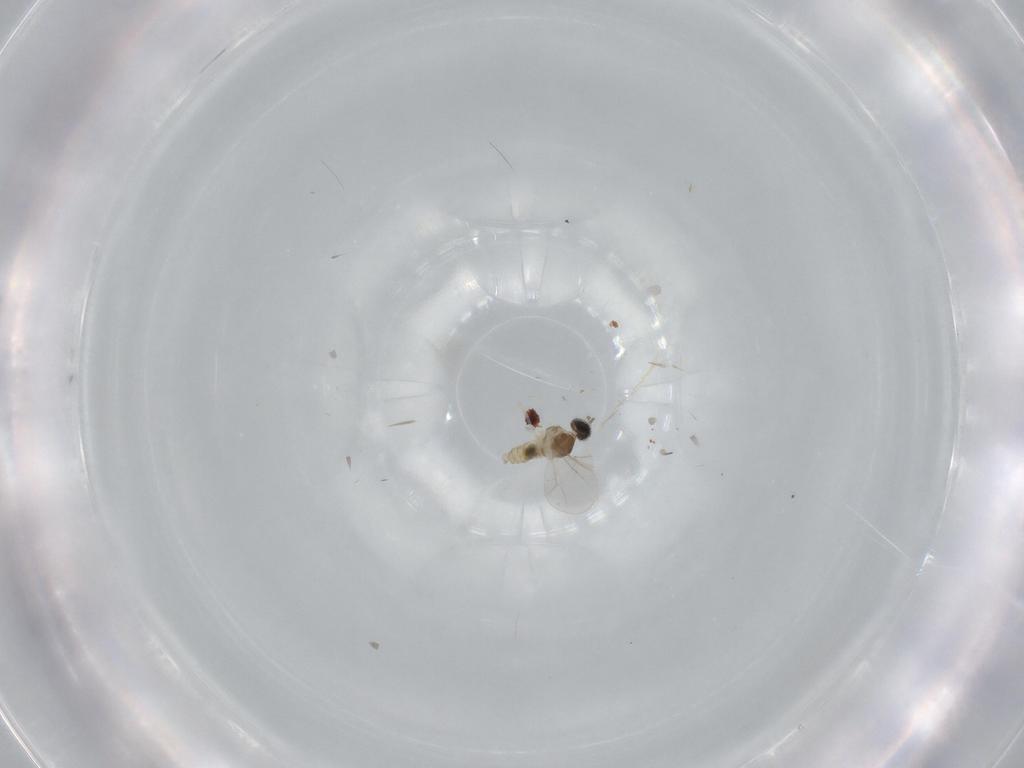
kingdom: Animalia
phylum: Arthropoda
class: Insecta
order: Diptera
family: Cecidomyiidae
